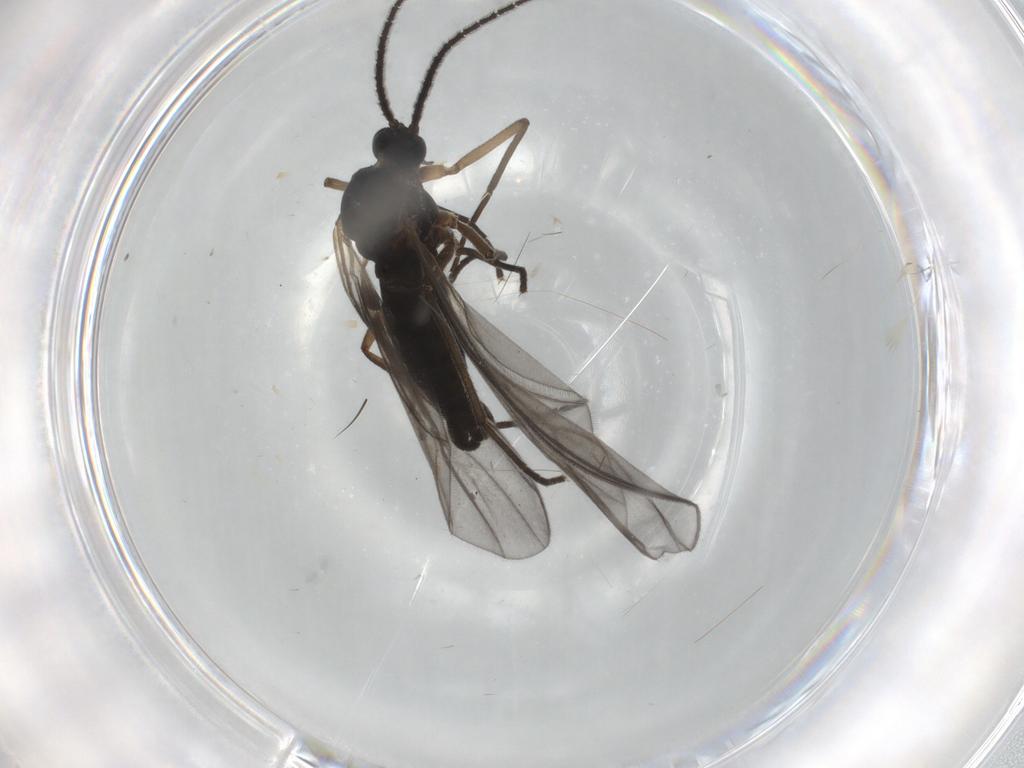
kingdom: Animalia
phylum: Arthropoda
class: Insecta
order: Diptera
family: Sciaridae
